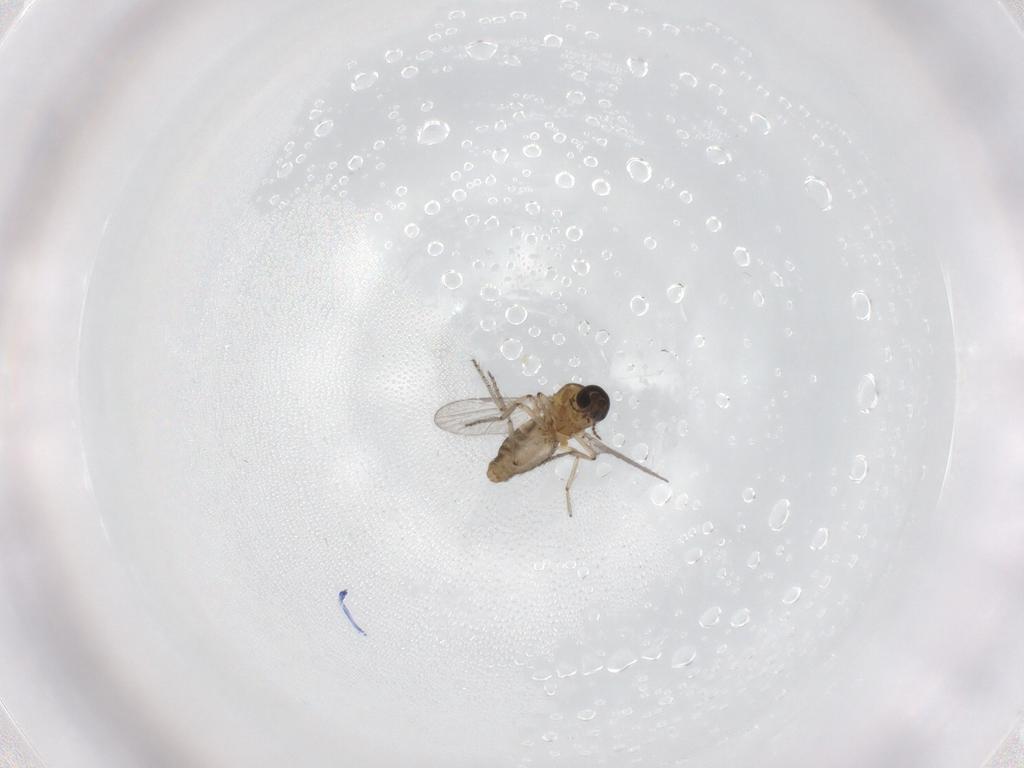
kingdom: Animalia
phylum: Arthropoda
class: Insecta
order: Diptera
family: Ceratopogonidae
